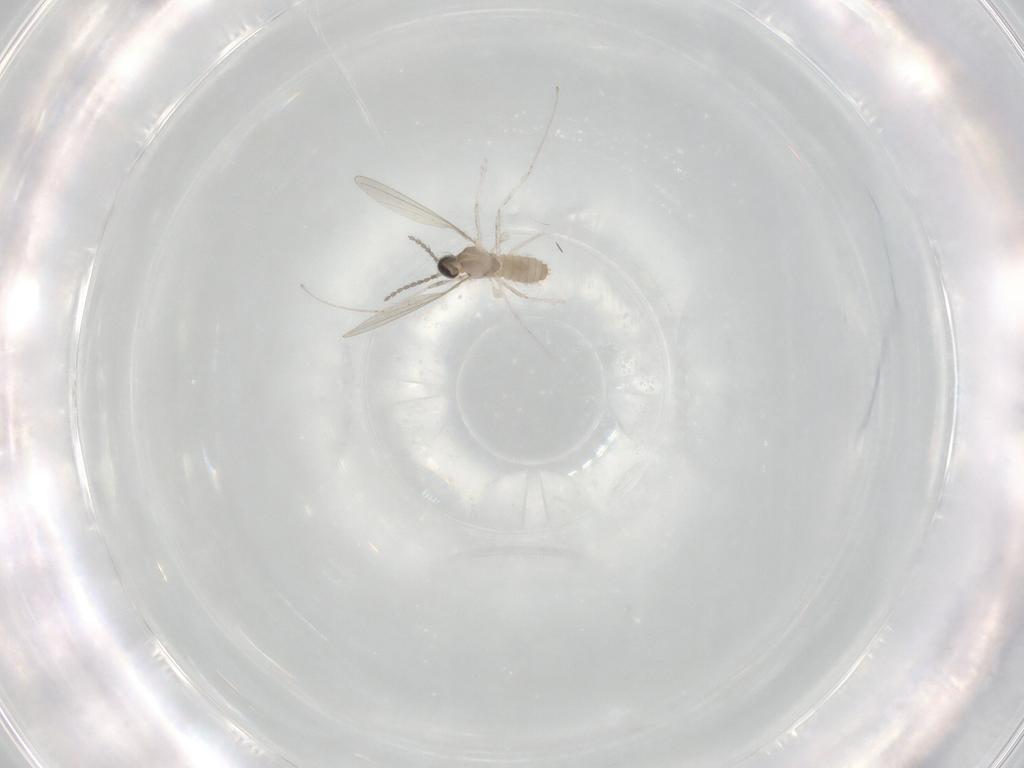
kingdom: Animalia
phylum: Arthropoda
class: Insecta
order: Diptera
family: Cecidomyiidae
